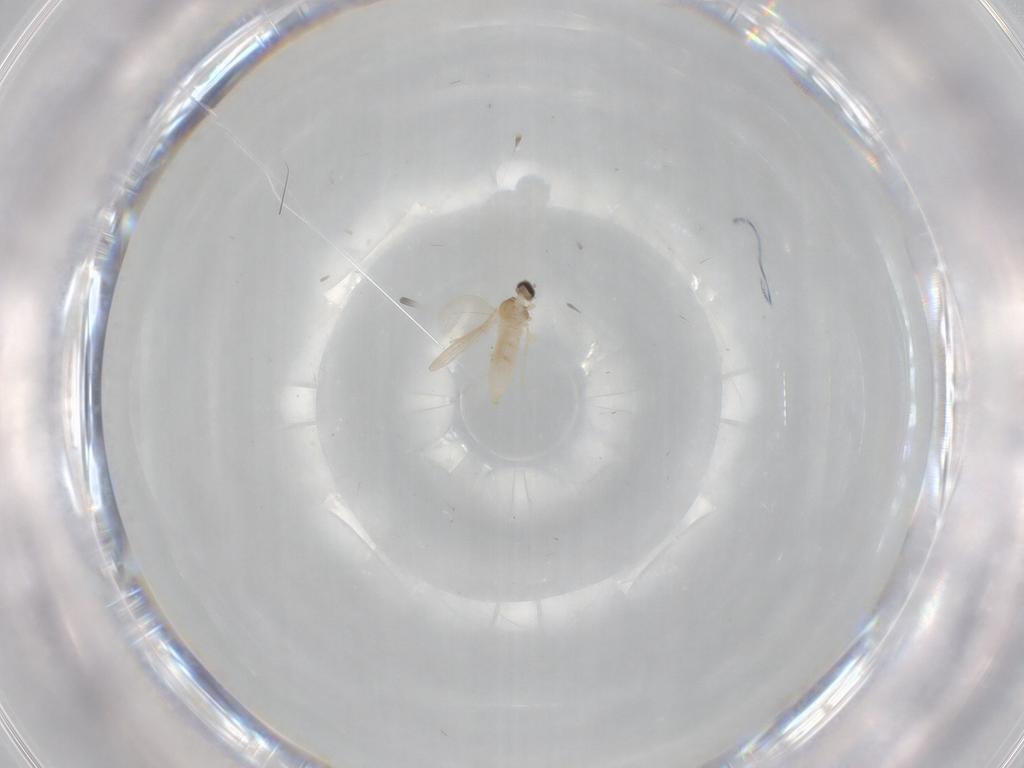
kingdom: Animalia
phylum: Arthropoda
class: Insecta
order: Diptera
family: Cecidomyiidae
